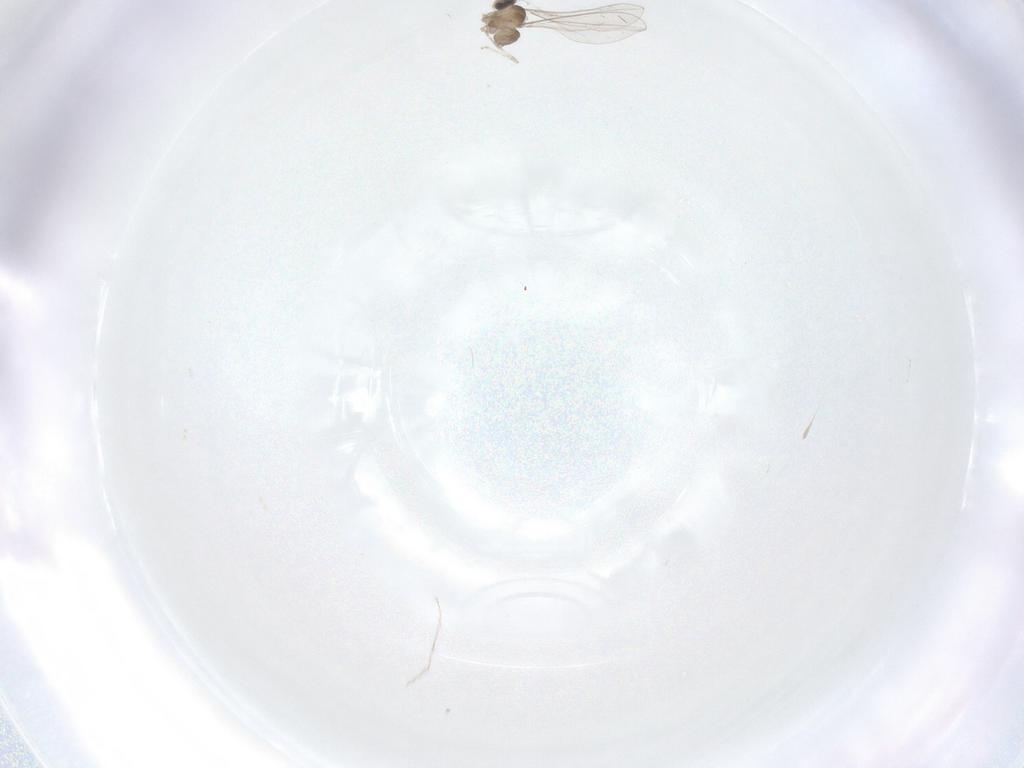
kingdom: Animalia
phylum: Arthropoda
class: Insecta
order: Diptera
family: Cecidomyiidae
